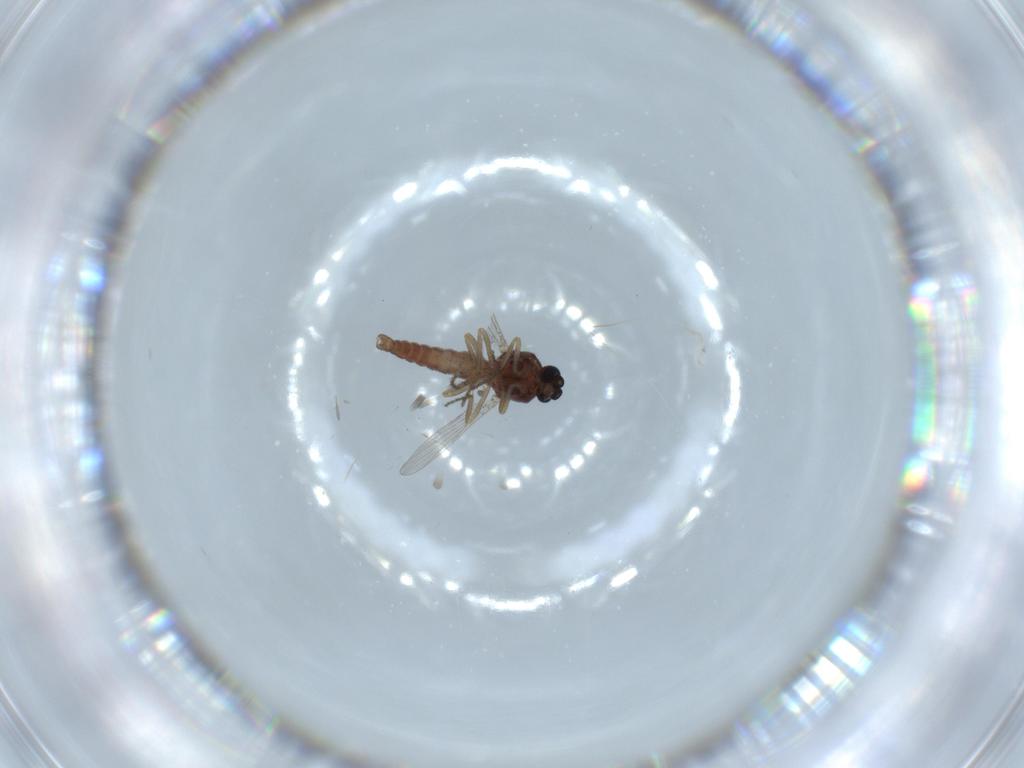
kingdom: Animalia
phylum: Arthropoda
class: Insecta
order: Diptera
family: Ceratopogonidae
